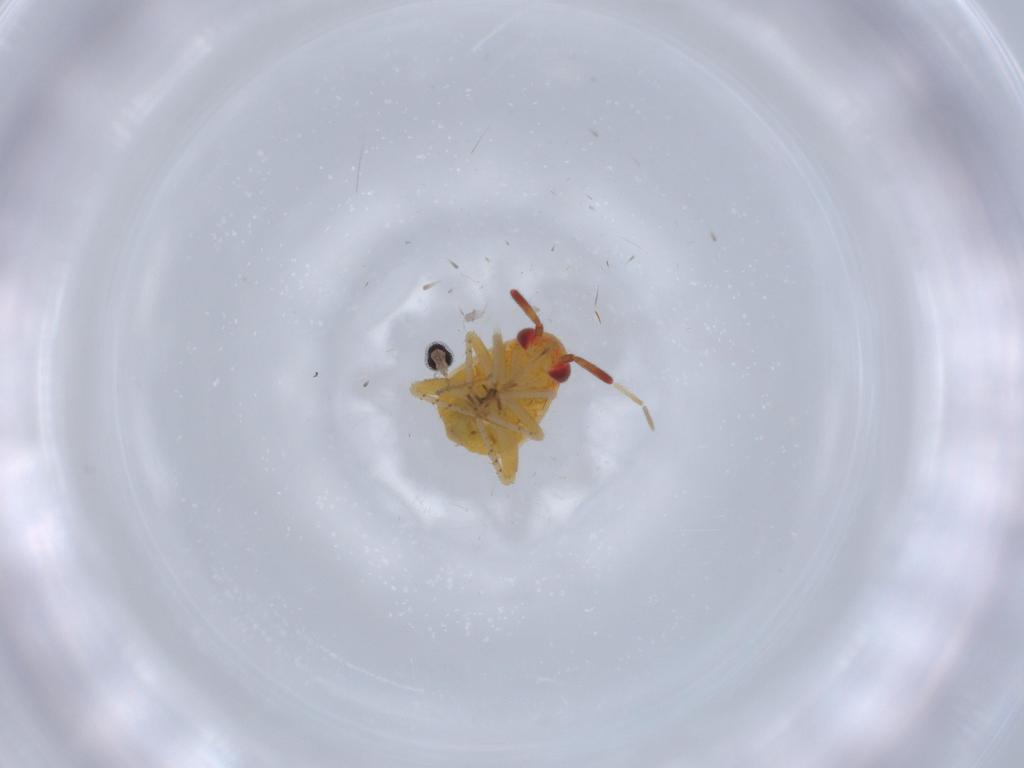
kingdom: Animalia
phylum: Arthropoda
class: Insecta
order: Hemiptera
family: Miridae
